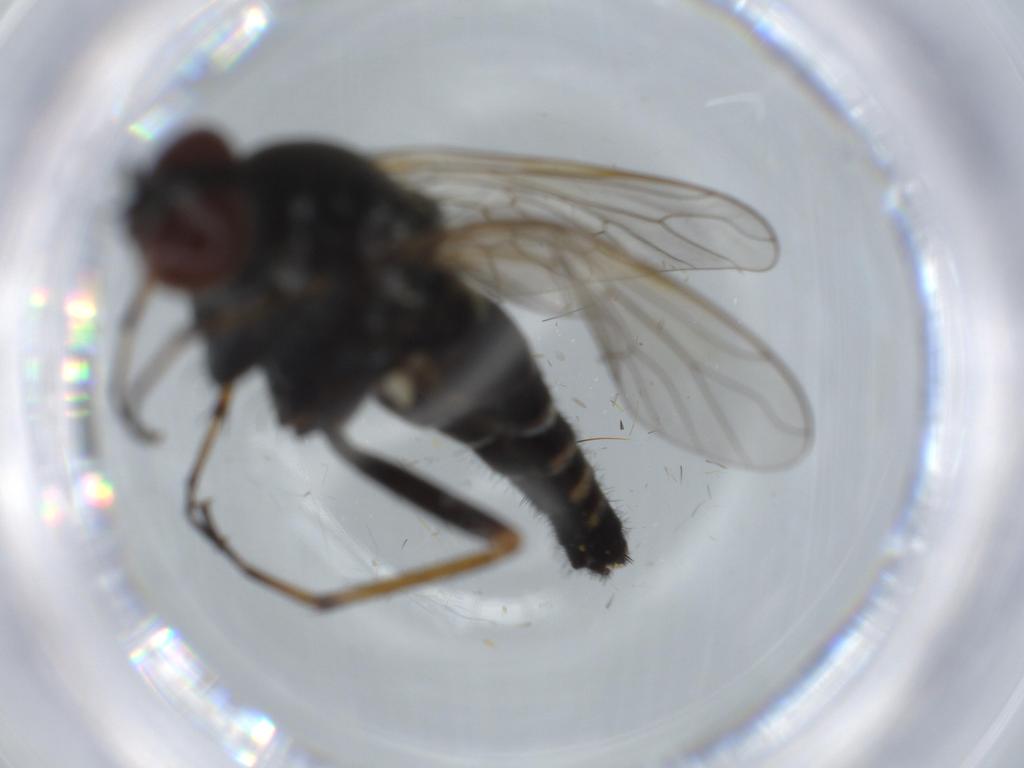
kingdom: Animalia
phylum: Arthropoda
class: Insecta
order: Diptera
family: Therevidae
